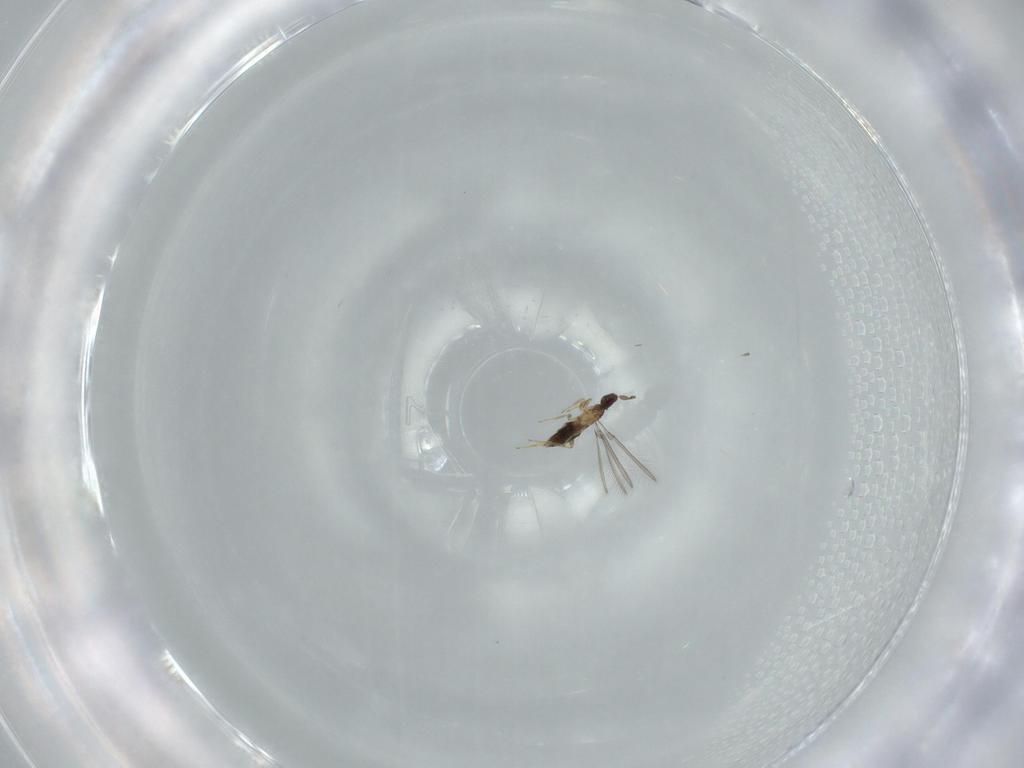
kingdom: Animalia
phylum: Arthropoda
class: Insecta
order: Hymenoptera
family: Mymaridae
